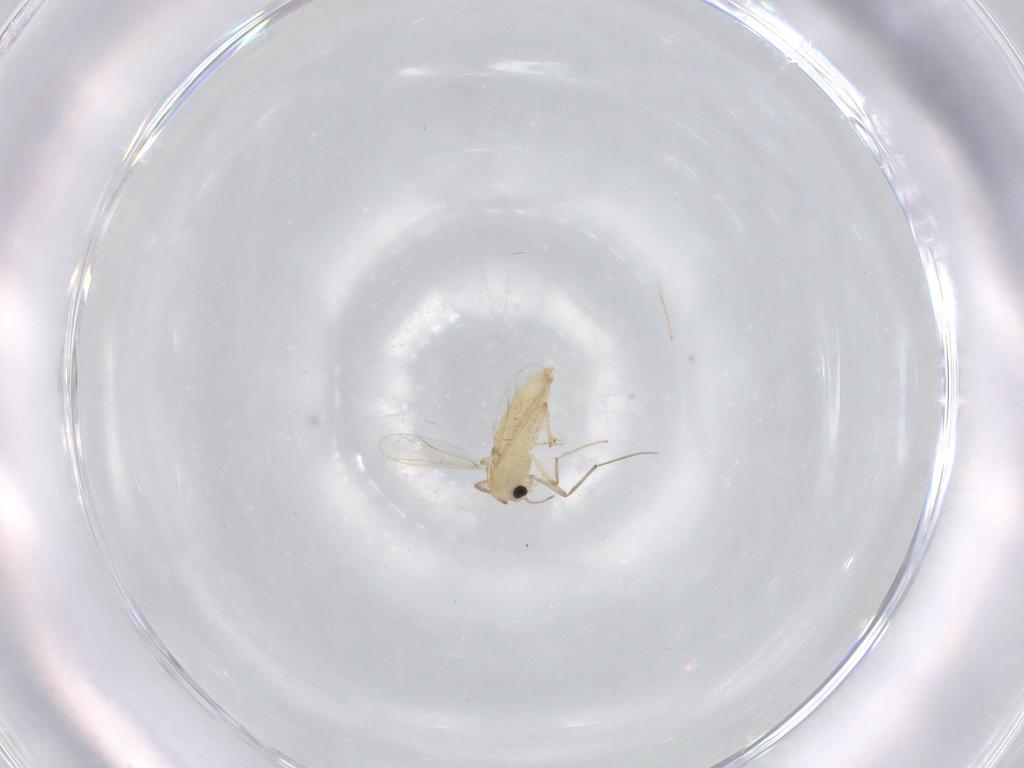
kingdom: Animalia
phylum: Arthropoda
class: Insecta
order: Diptera
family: Chironomidae
